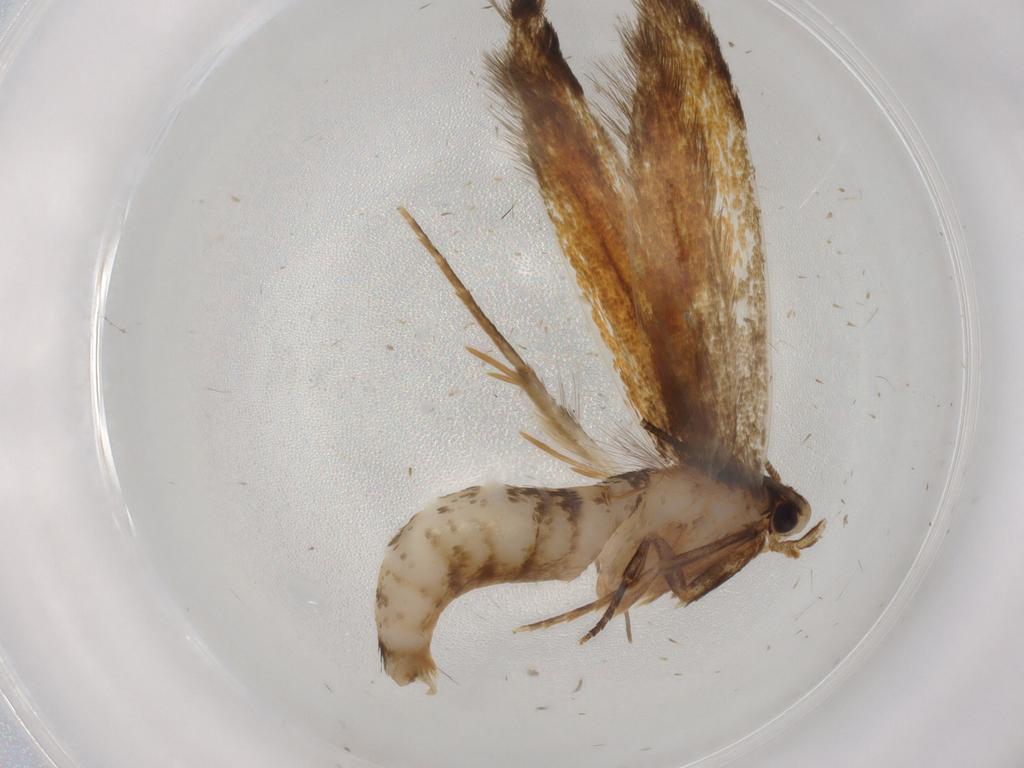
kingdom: Animalia
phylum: Arthropoda
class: Insecta
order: Lepidoptera
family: Tineidae
